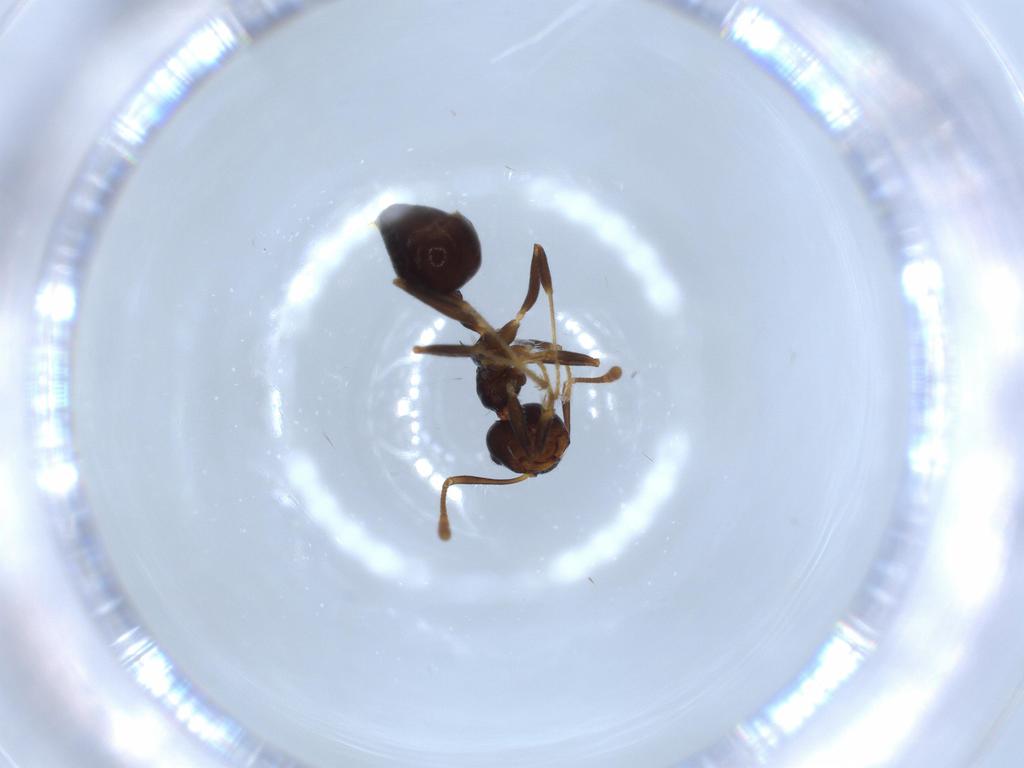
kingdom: Animalia
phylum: Arthropoda
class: Insecta
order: Hymenoptera
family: Formicidae
